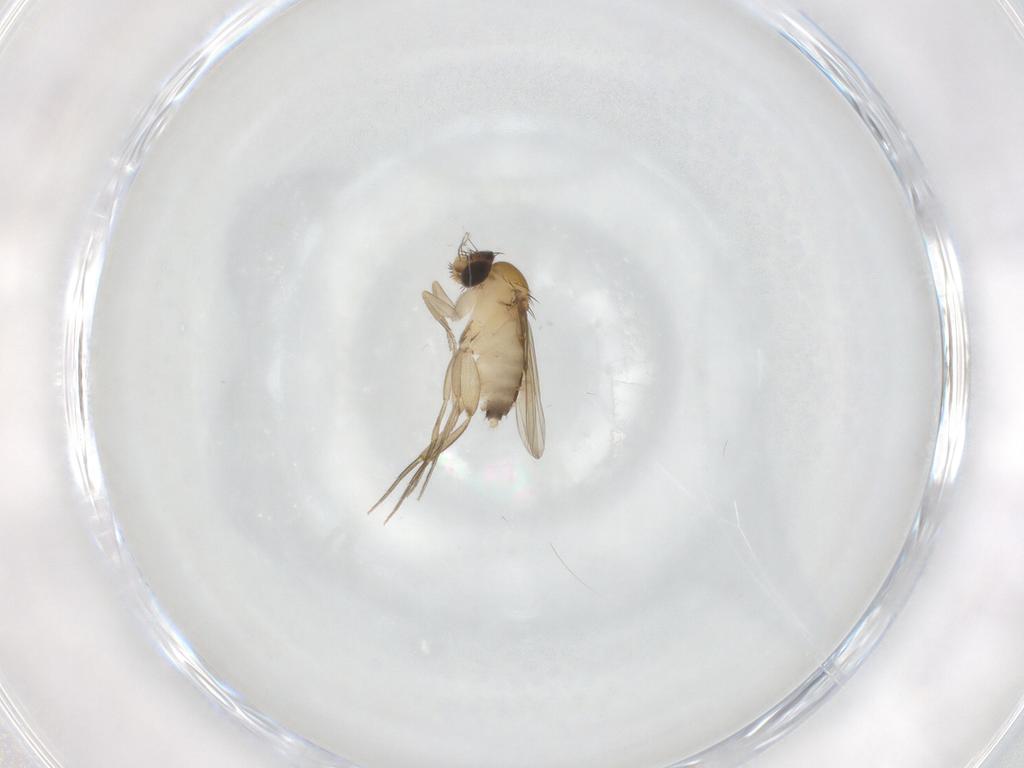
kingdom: Animalia
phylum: Arthropoda
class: Insecta
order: Diptera
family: Phoridae
